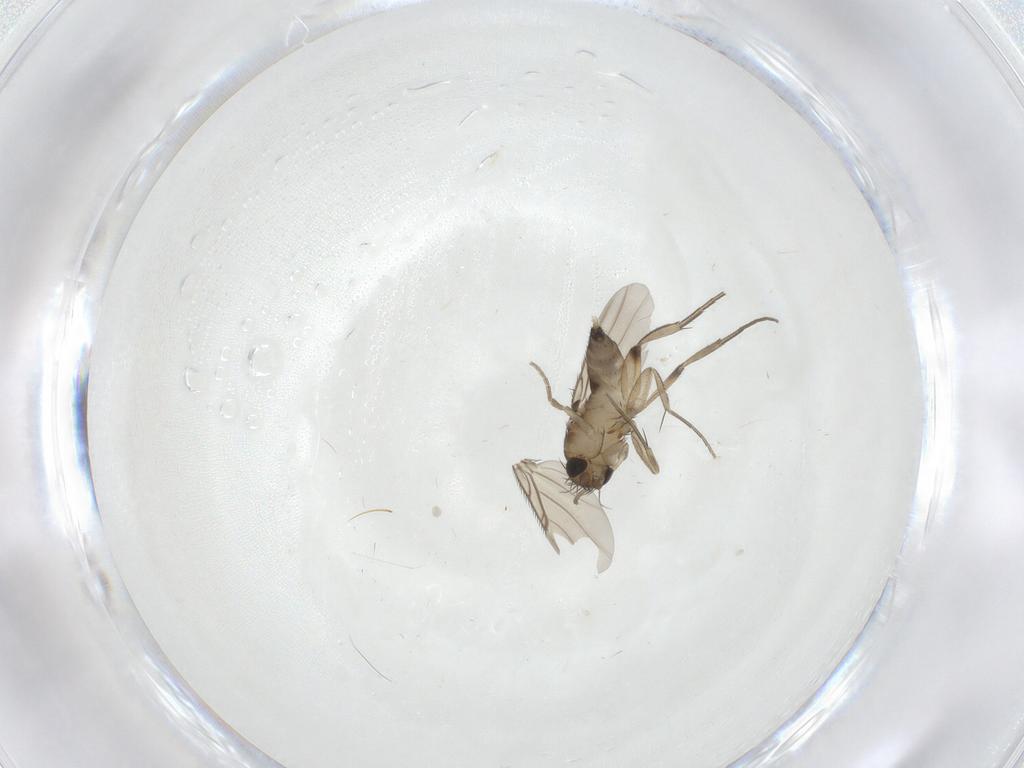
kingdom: Animalia
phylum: Arthropoda
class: Insecta
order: Diptera
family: Phoridae
